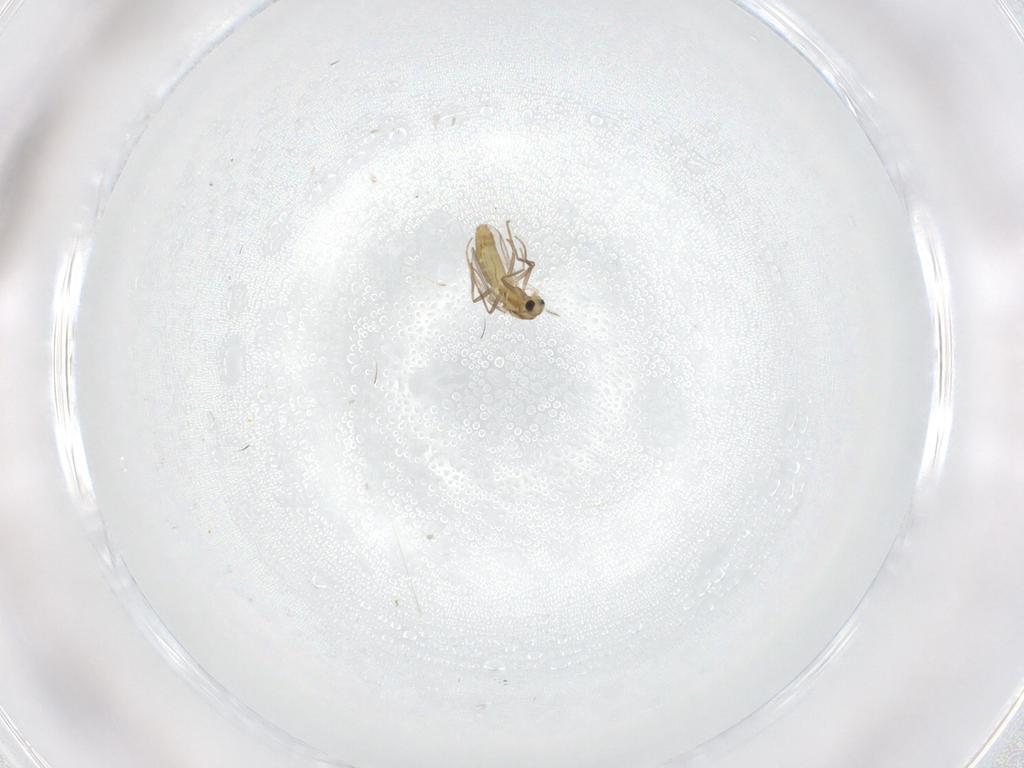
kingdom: Animalia
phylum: Arthropoda
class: Insecta
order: Diptera
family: Chironomidae
